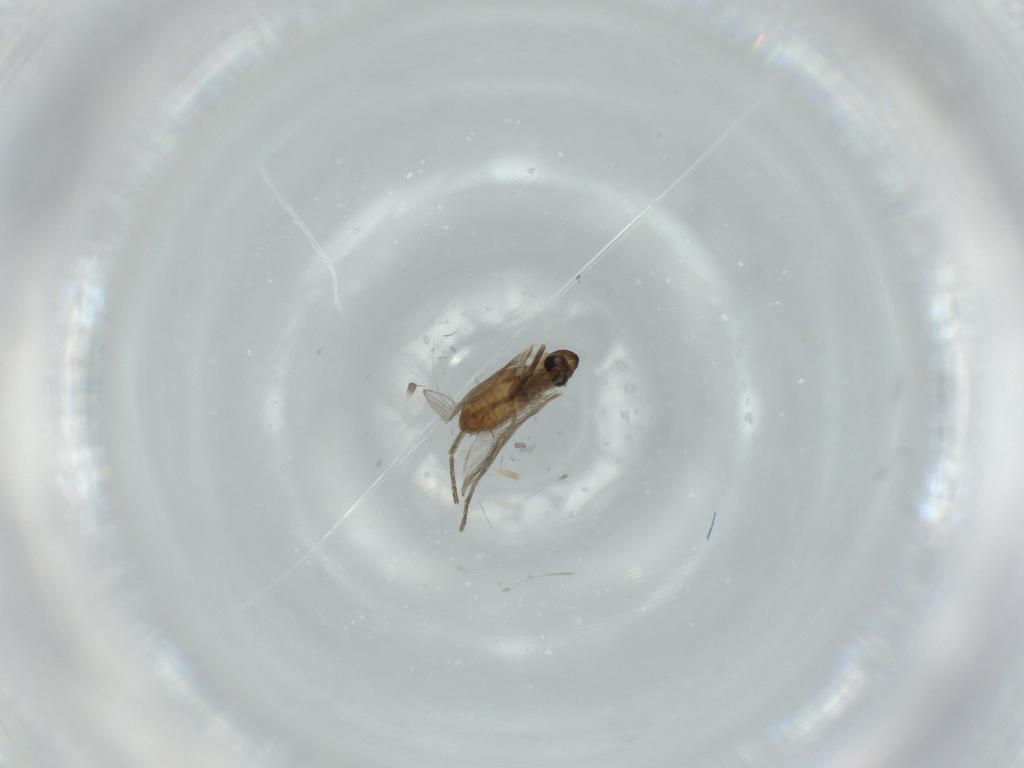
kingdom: Animalia
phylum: Arthropoda
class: Insecta
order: Diptera
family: Psychodidae
